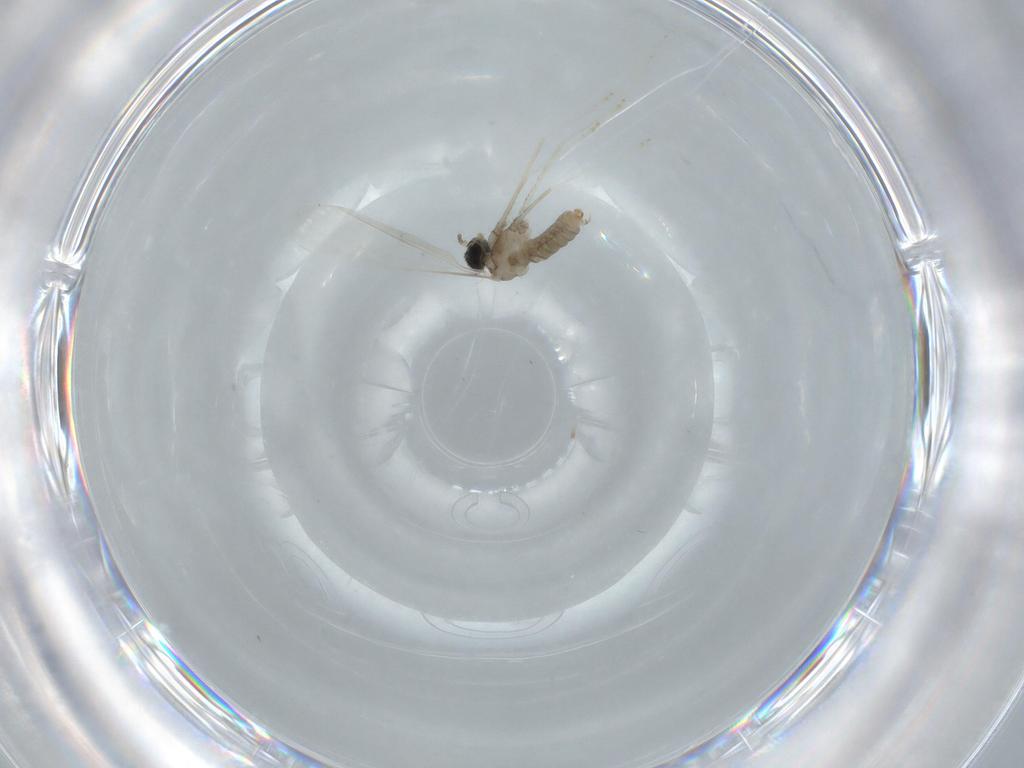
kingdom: Animalia
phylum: Arthropoda
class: Insecta
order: Diptera
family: Cecidomyiidae
